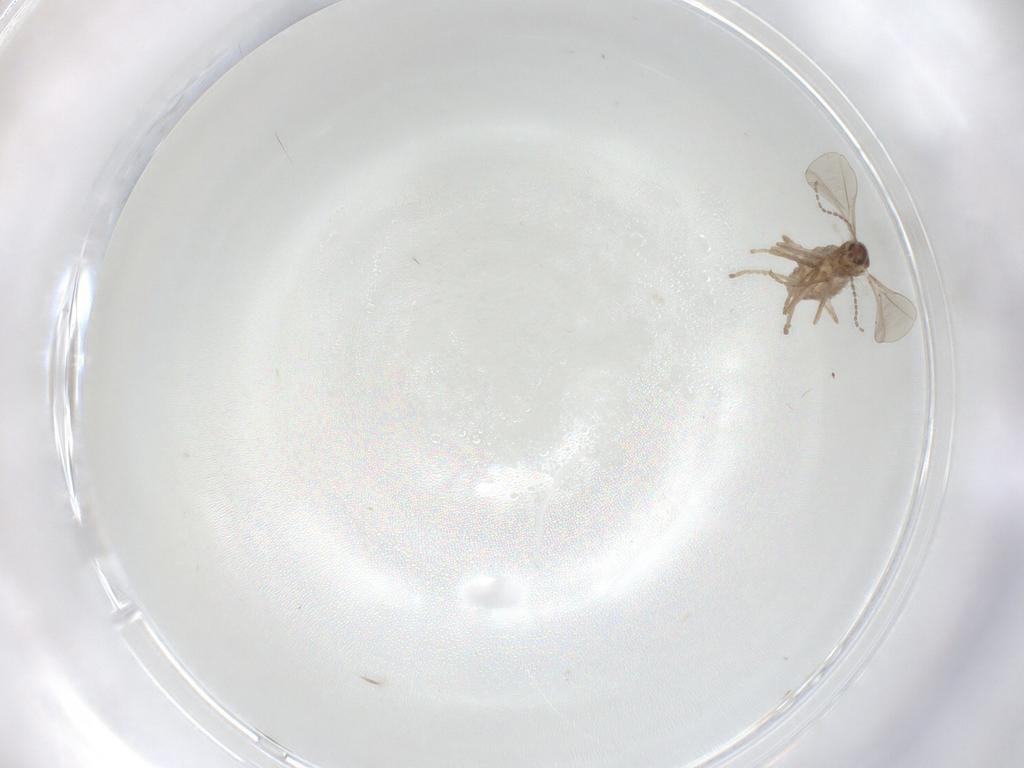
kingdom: Animalia
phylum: Arthropoda
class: Insecta
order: Diptera
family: Cecidomyiidae
